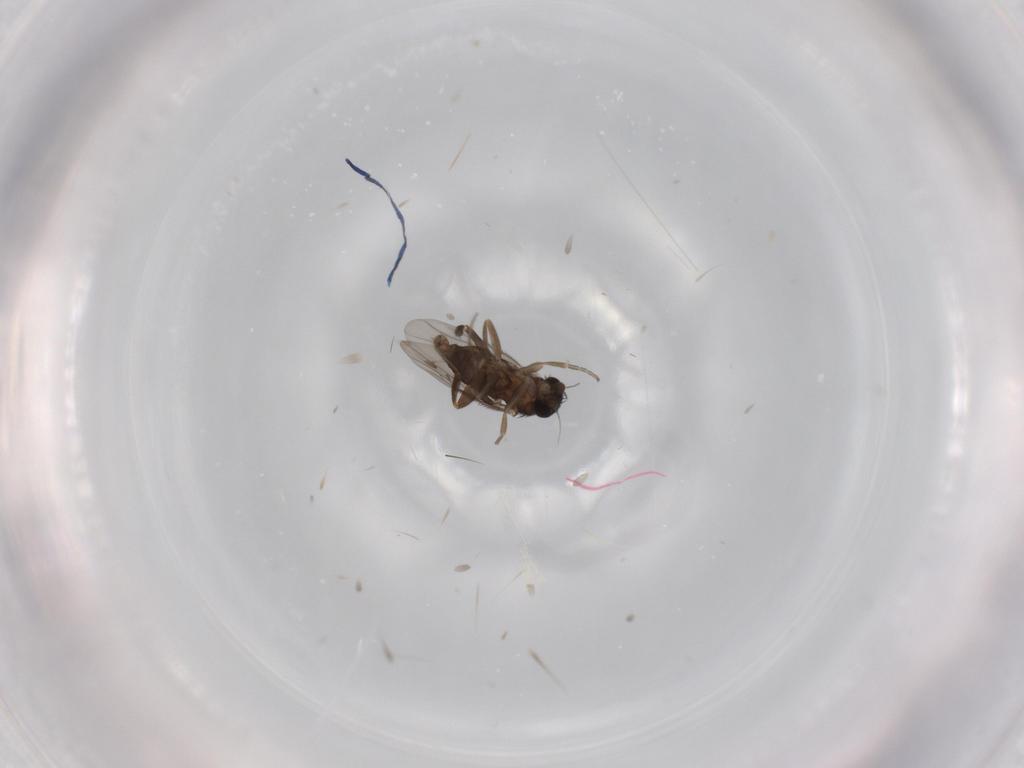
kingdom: Animalia
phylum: Arthropoda
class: Insecta
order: Diptera
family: Phoridae
